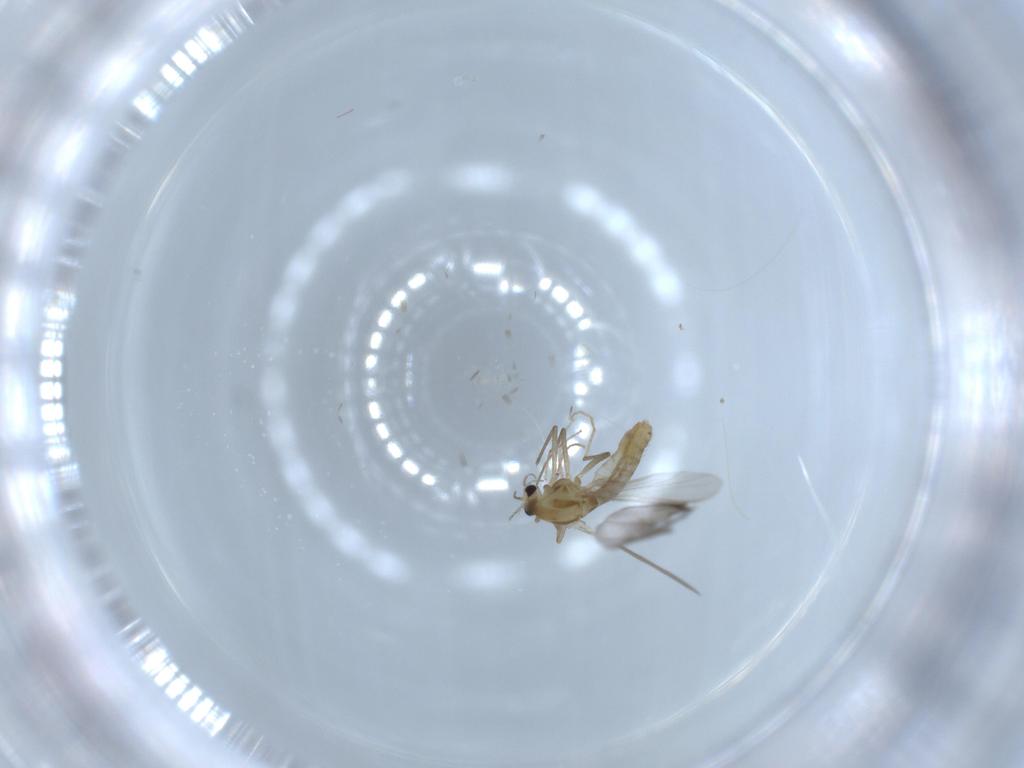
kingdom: Animalia
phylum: Arthropoda
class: Insecta
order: Diptera
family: Chironomidae
